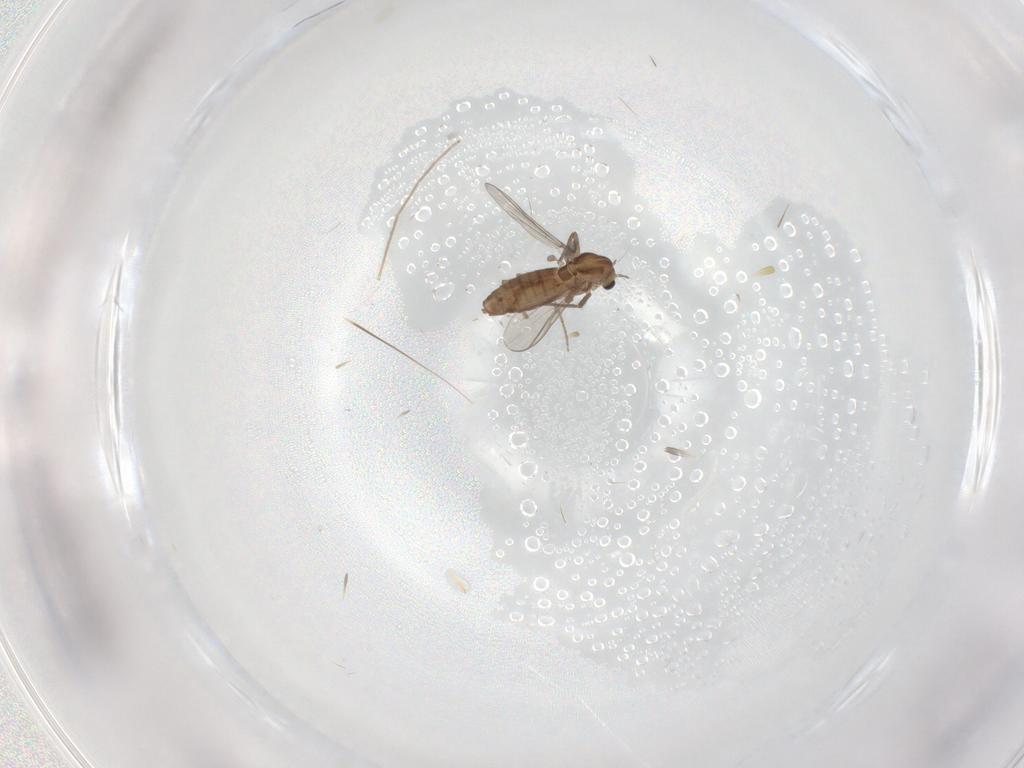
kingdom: Animalia
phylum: Arthropoda
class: Insecta
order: Diptera
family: Chironomidae
